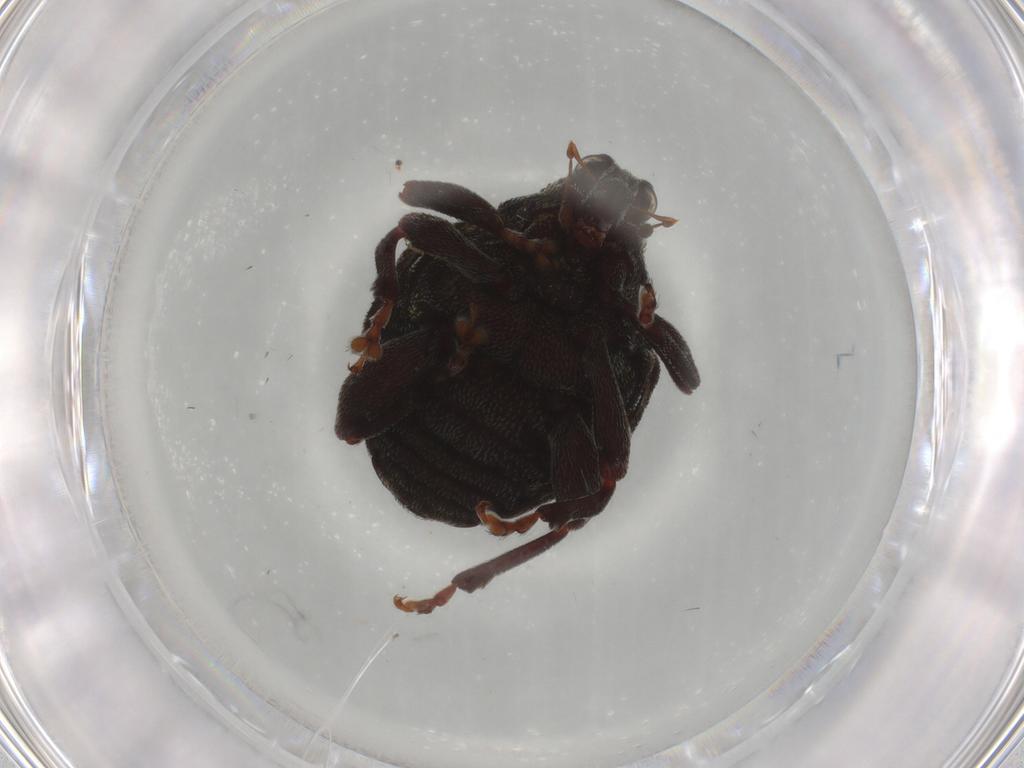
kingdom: Animalia
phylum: Arthropoda
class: Insecta
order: Coleoptera
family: Curculionidae
